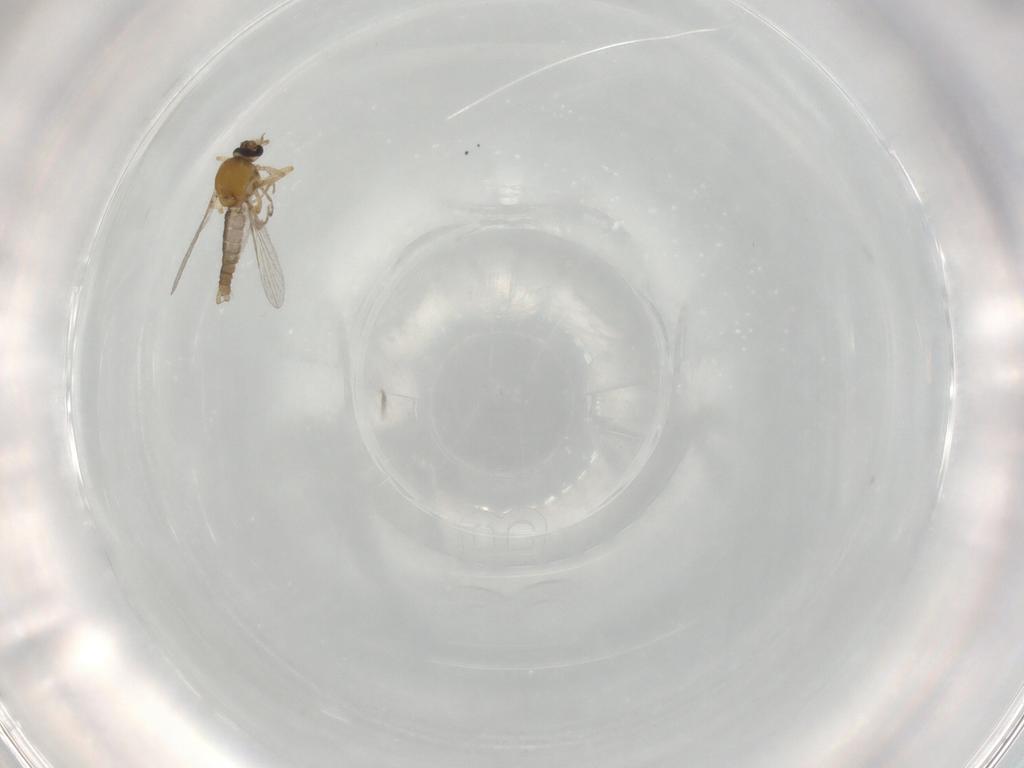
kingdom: Animalia
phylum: Arthropoda
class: Insecta
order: Diptera
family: Ceratopogonidae
